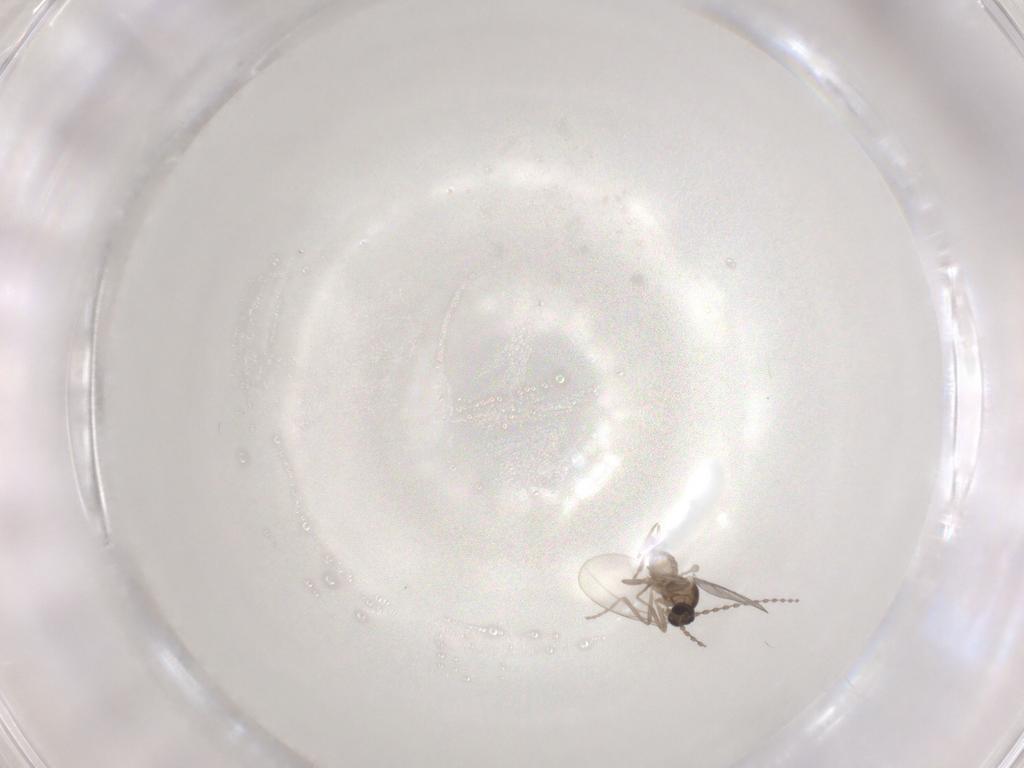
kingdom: Animalia
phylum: Arthropoda
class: Insecta
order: Diptera
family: Cecidomyiidae
